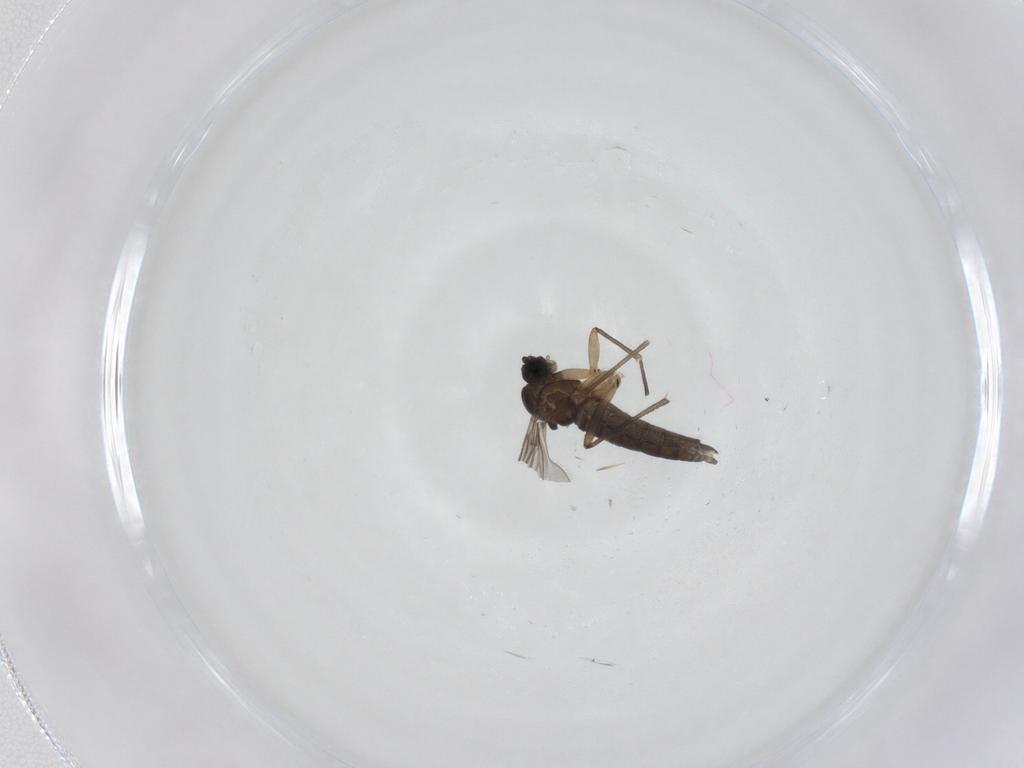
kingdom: Animalia
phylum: Arthropoda
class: Insecta
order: Diptera
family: Sciaridae
